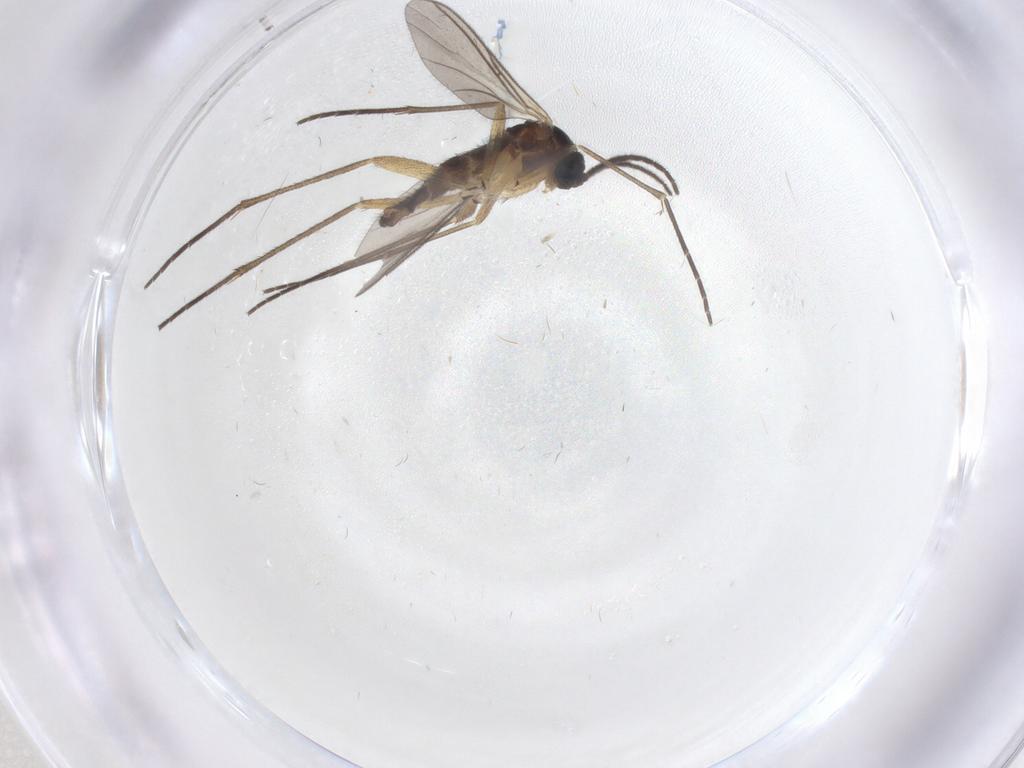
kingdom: Animalia
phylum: Arthropoda
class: Insecta
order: Diptera
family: Sciaridae
